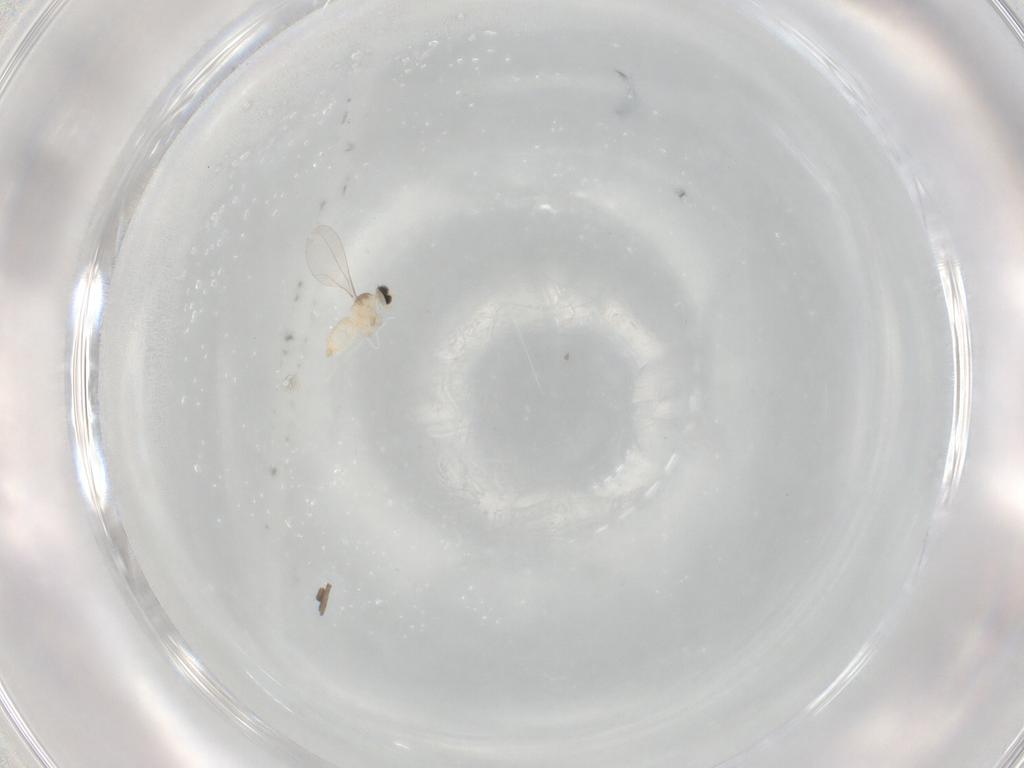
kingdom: Animalia
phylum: Arthropoda
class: Insecta
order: Diptera
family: Cecidomyiidae
